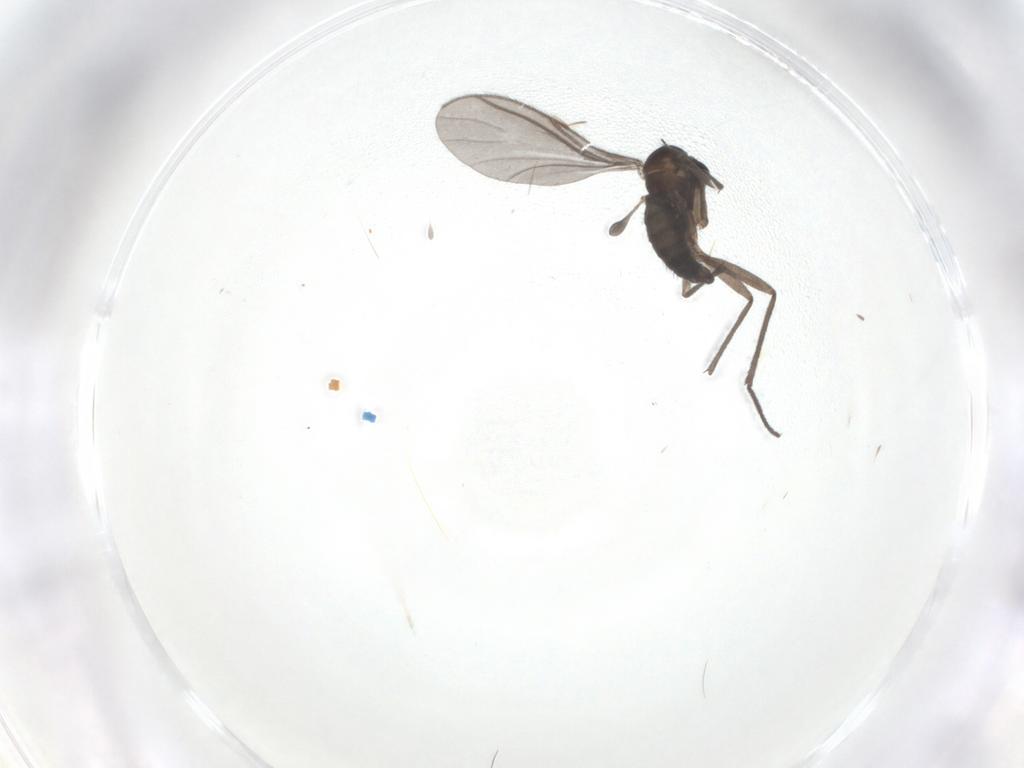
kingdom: Animalia
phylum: Arthropoda
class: Insecta
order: Diptera
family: Sciaridae
